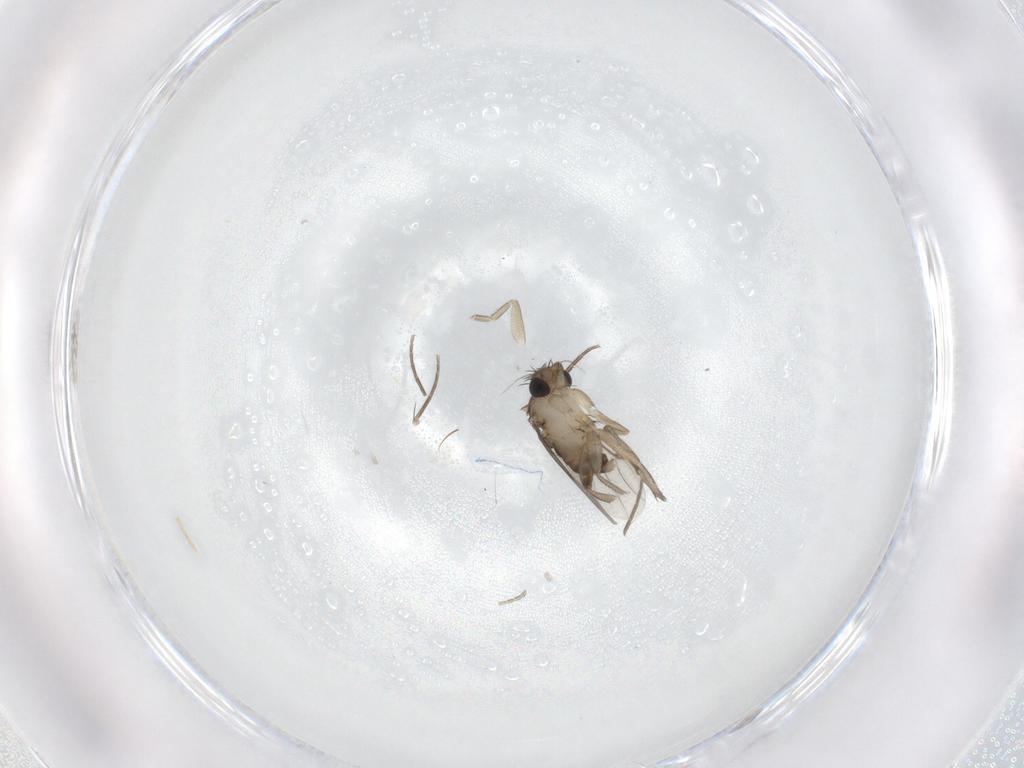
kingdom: Animalia
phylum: Arthropoda
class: Insecta
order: Diptera
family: Phoridae
